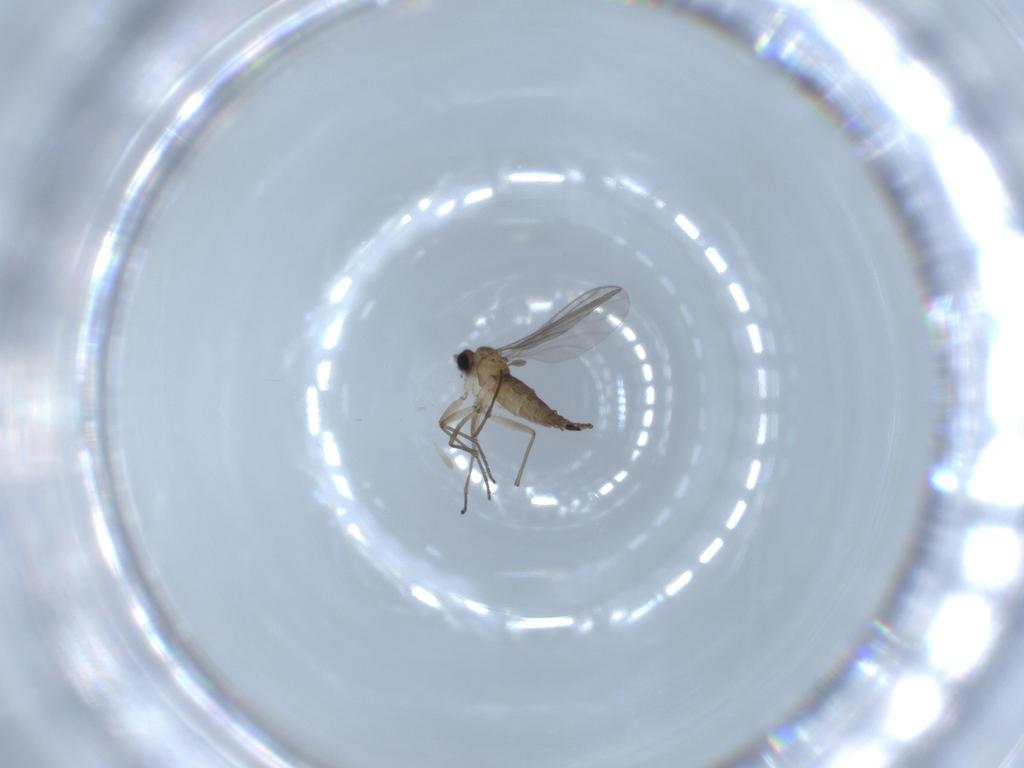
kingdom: Animalia
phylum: Arthropoda
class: Insecta
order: Diptera
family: Sciaridae
